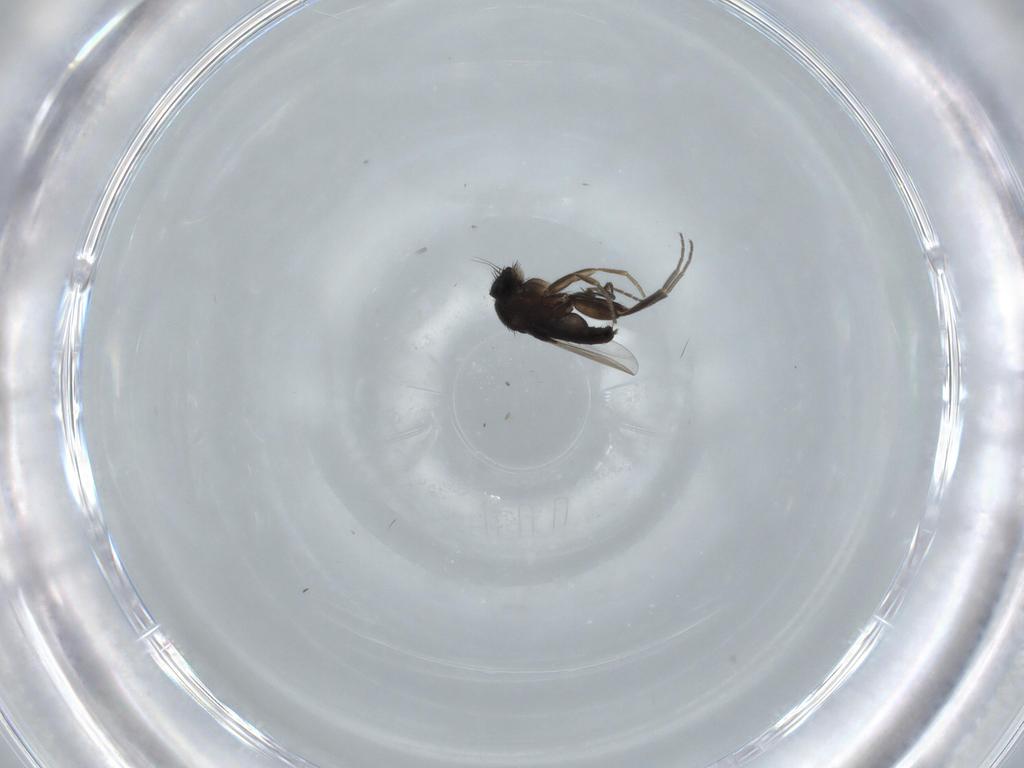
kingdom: Animalia
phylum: Arthropoda
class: Insecta
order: Diptera
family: Phoridae
